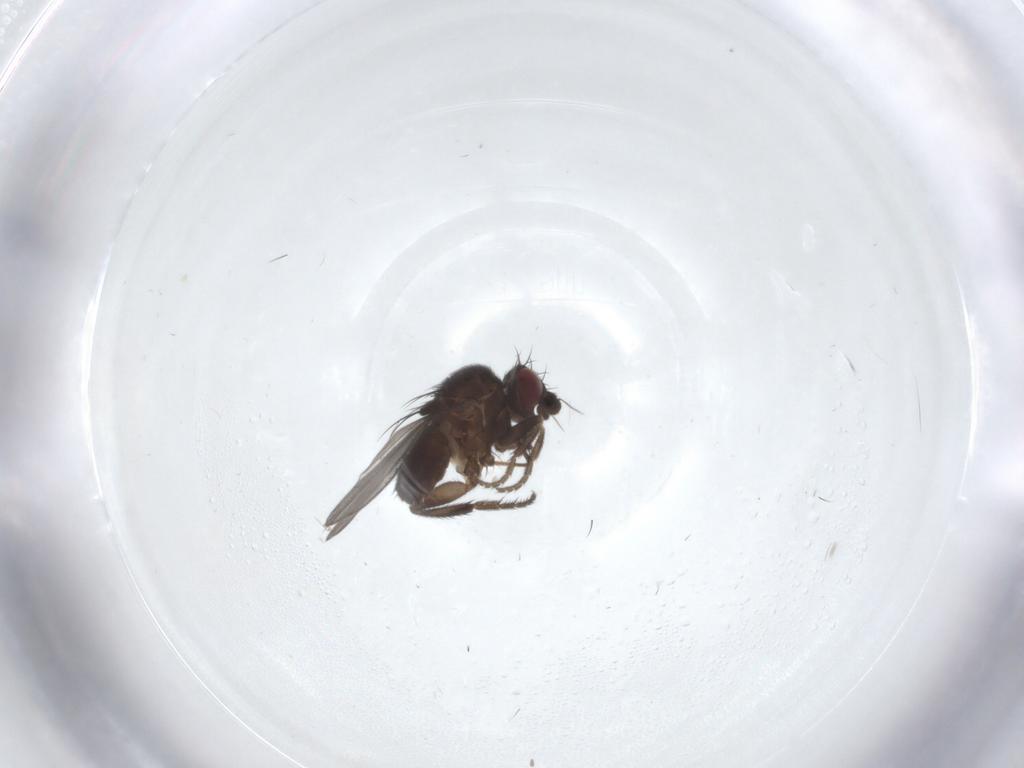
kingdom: Animalia
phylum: Arthropoda
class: Insecta
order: Diptera
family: Milichiidae
